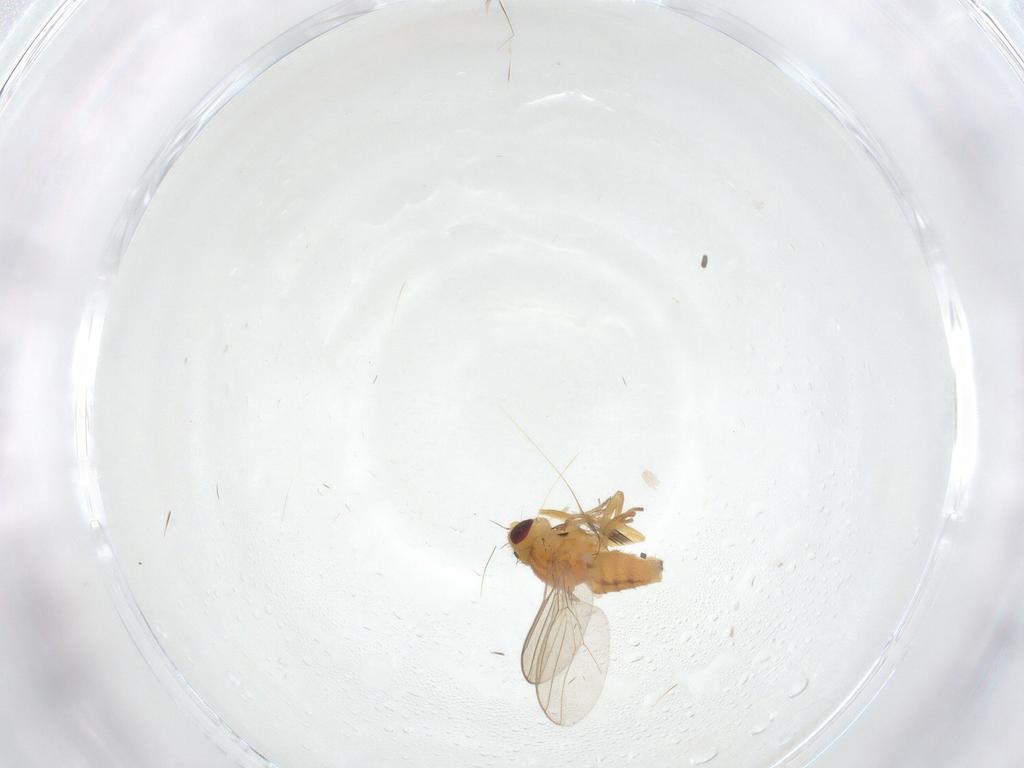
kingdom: Animalia
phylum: Arthropoda
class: Insecta
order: Diptera
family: Chloropidae
